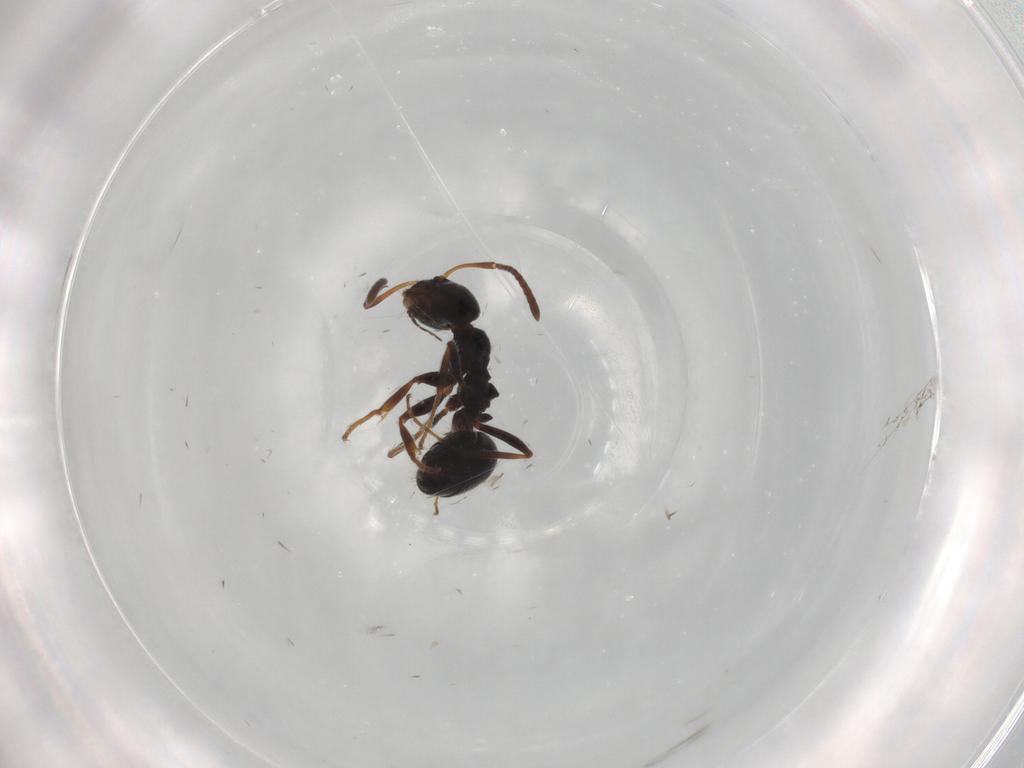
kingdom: Animalia
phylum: Arthropoda
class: Insecta
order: Hymenoptera
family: Formicidae
